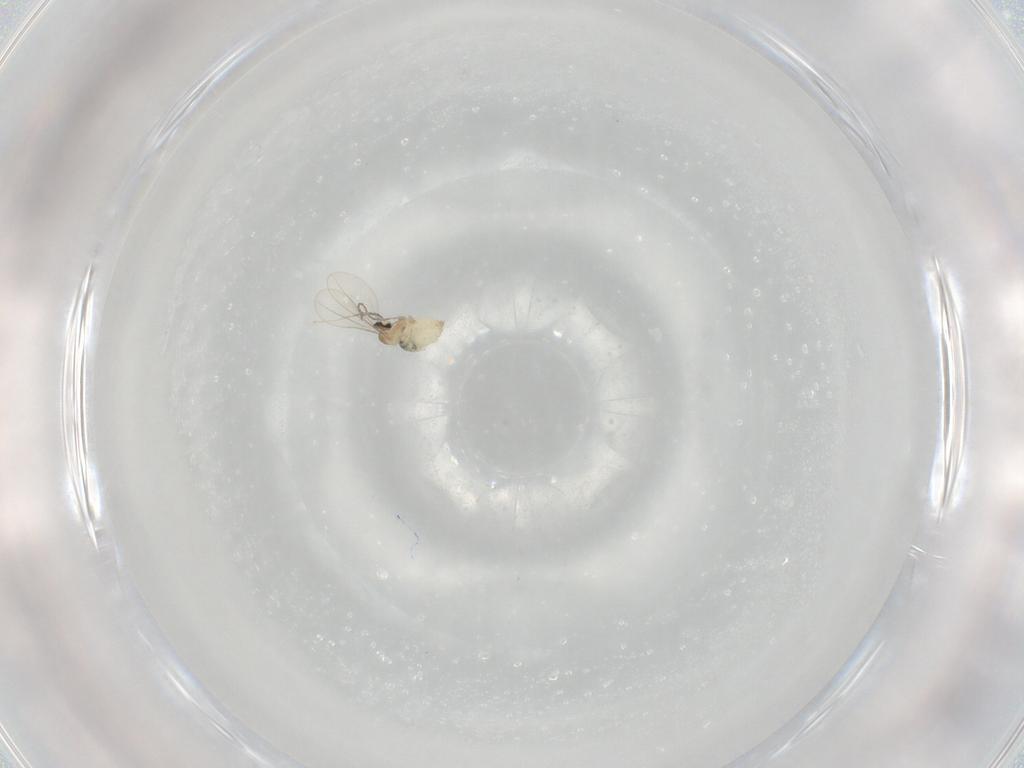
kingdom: Animalia
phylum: Arthropoda
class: Insecta
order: Diptera
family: Cecidomyiidae
